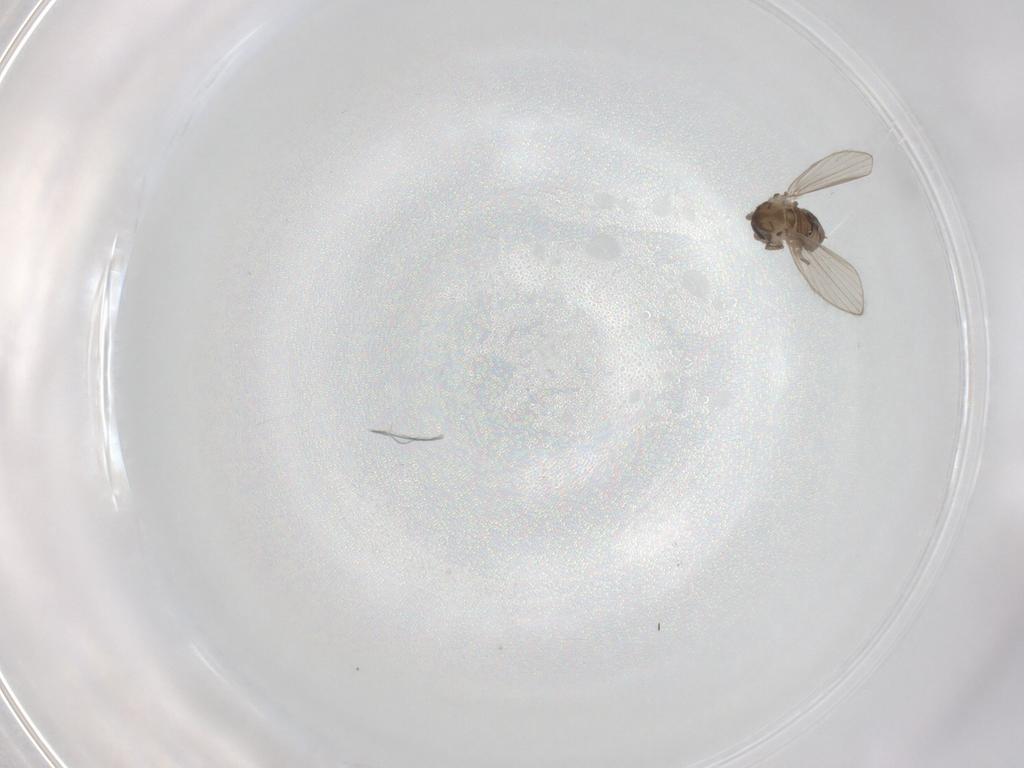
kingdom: Animalia
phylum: Arthropoda
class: Insecta
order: Diptera
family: Psychodidae
